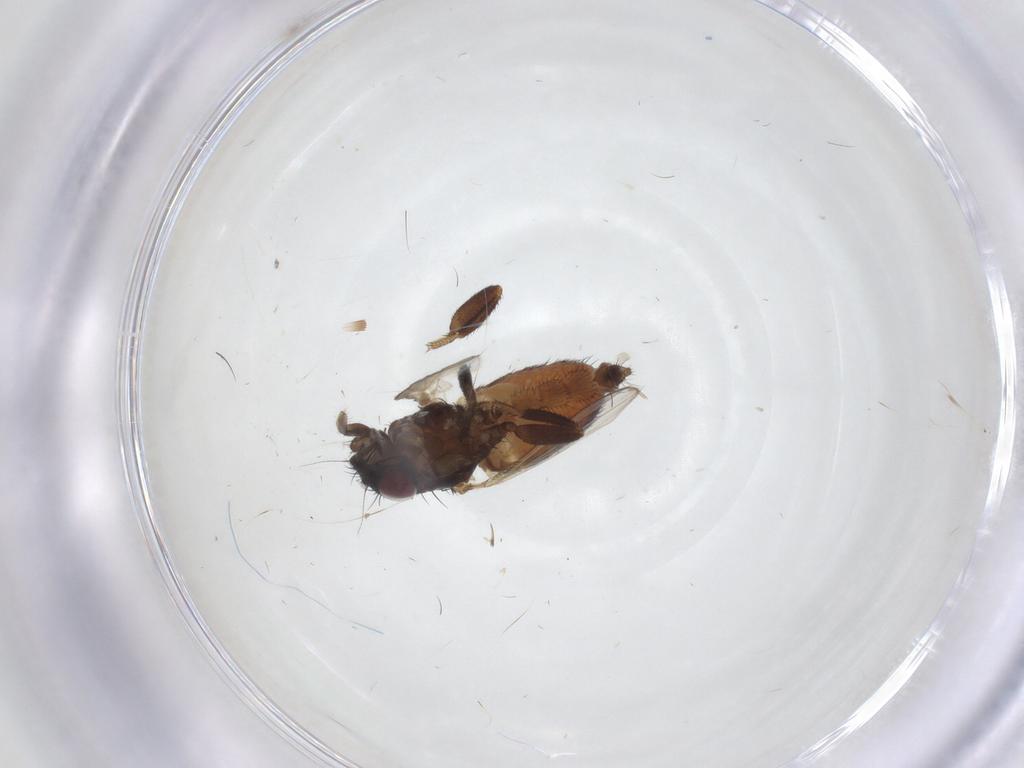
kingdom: Animalia
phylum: Arthropoda
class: Insecta
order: Diptera
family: Milichiidae
